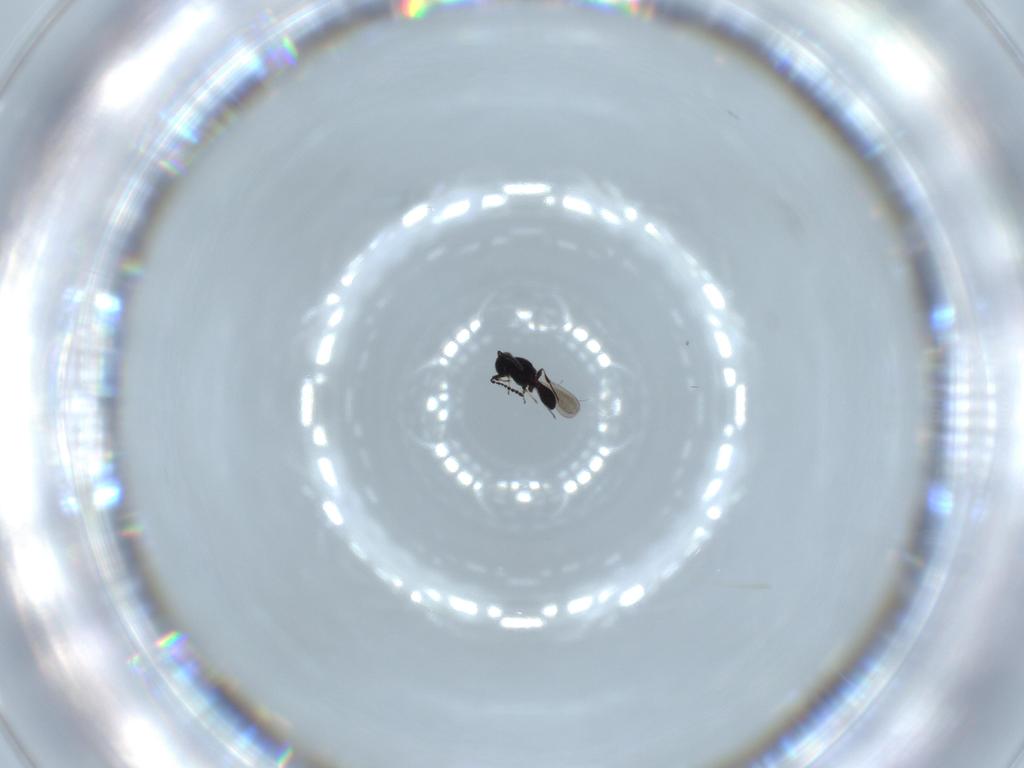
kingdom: Animalia
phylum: Arthropoda
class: Insecta
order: Hymenoptera
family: Platygastridae
